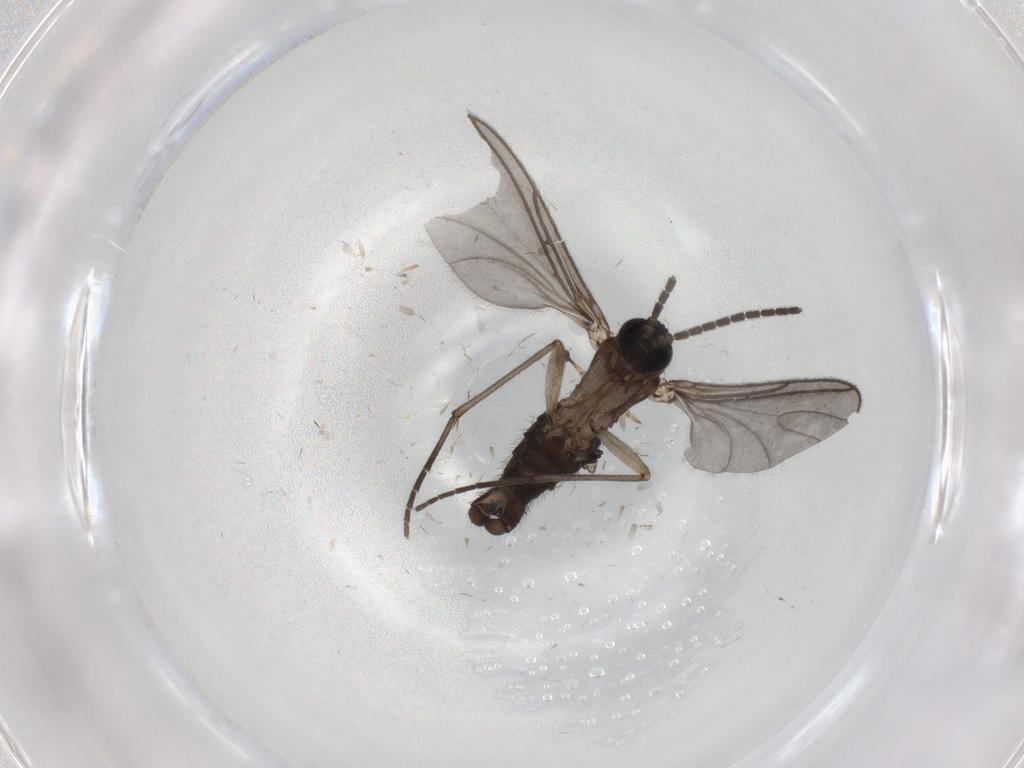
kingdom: Animalia
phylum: Arthropoda
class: Insecta
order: Diptera
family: Sciaridae
